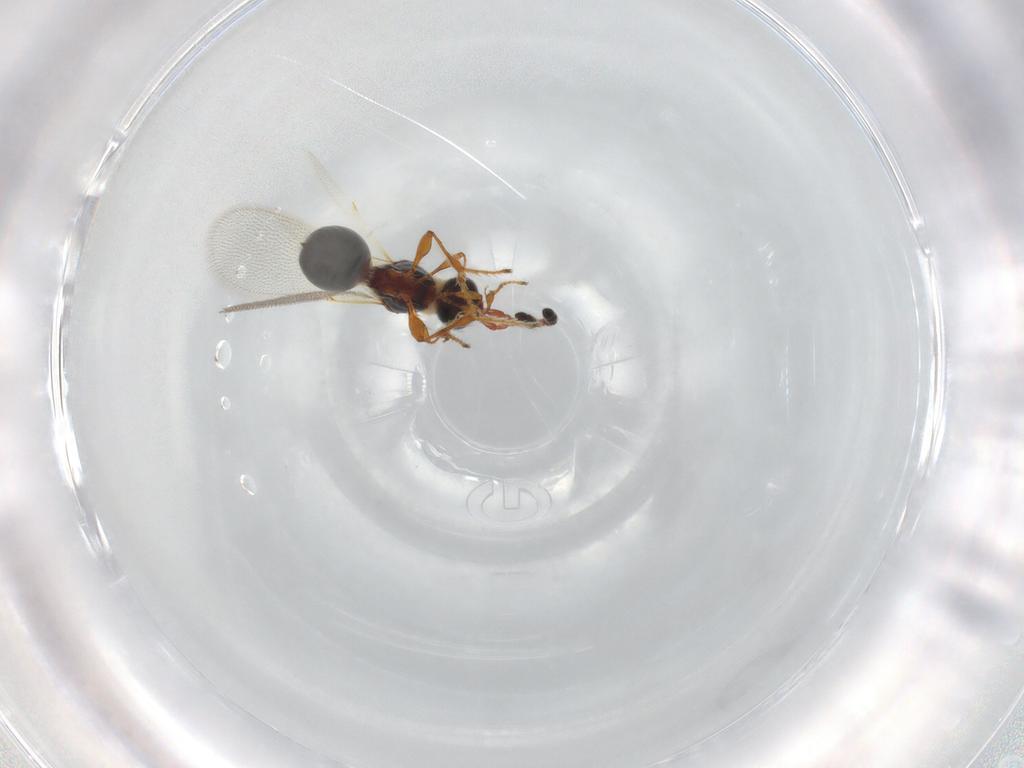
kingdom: Animalia
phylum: Arthropoda
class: Insecta
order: Hymenoptera
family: Diapriidae
